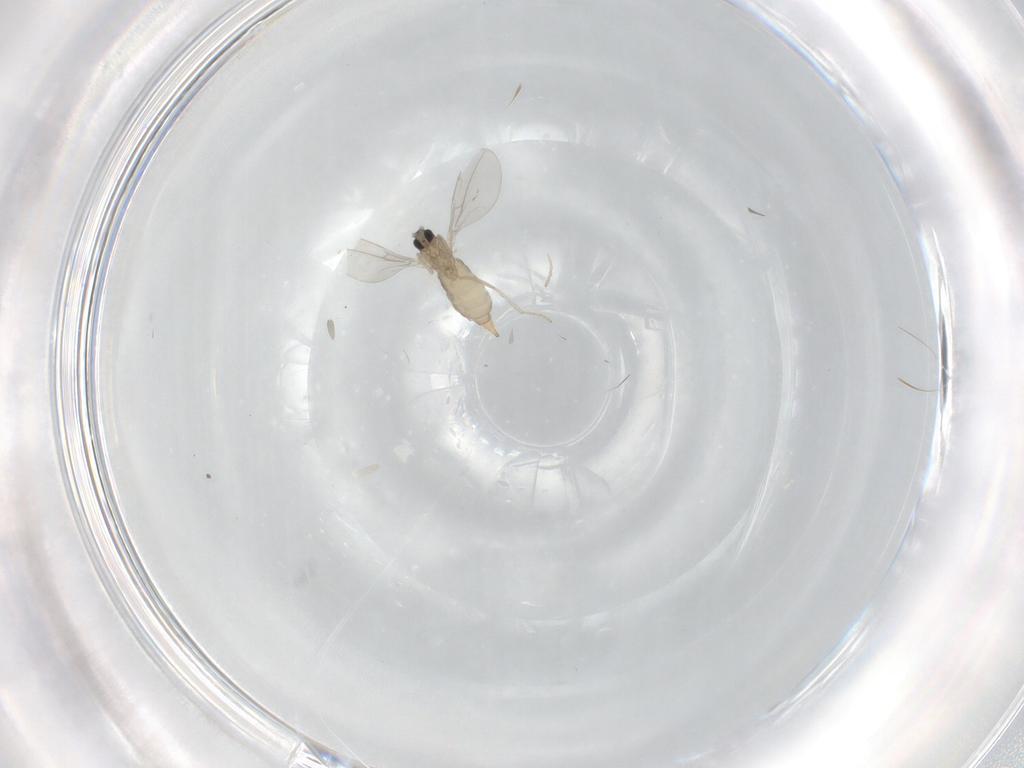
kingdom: Animalia
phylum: Arthropoda
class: Insecta
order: Diptera
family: Cecidomyiidae
